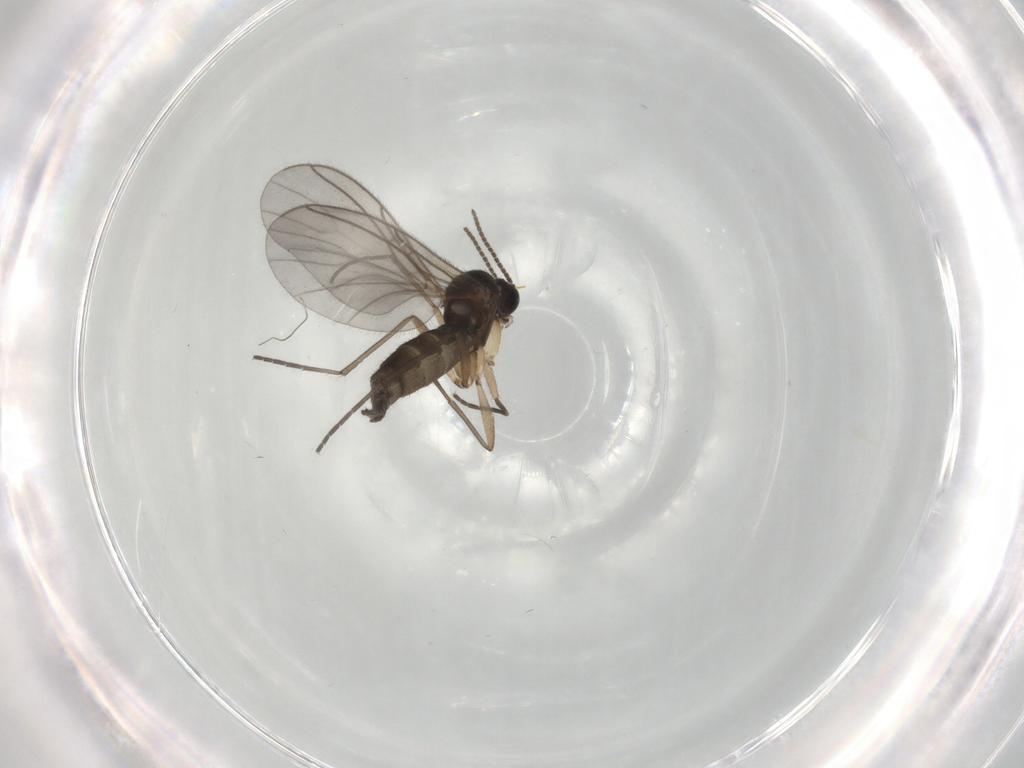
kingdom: Animalia
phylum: Arthropoda
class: Insecta
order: Diptera
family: Sciaridae
